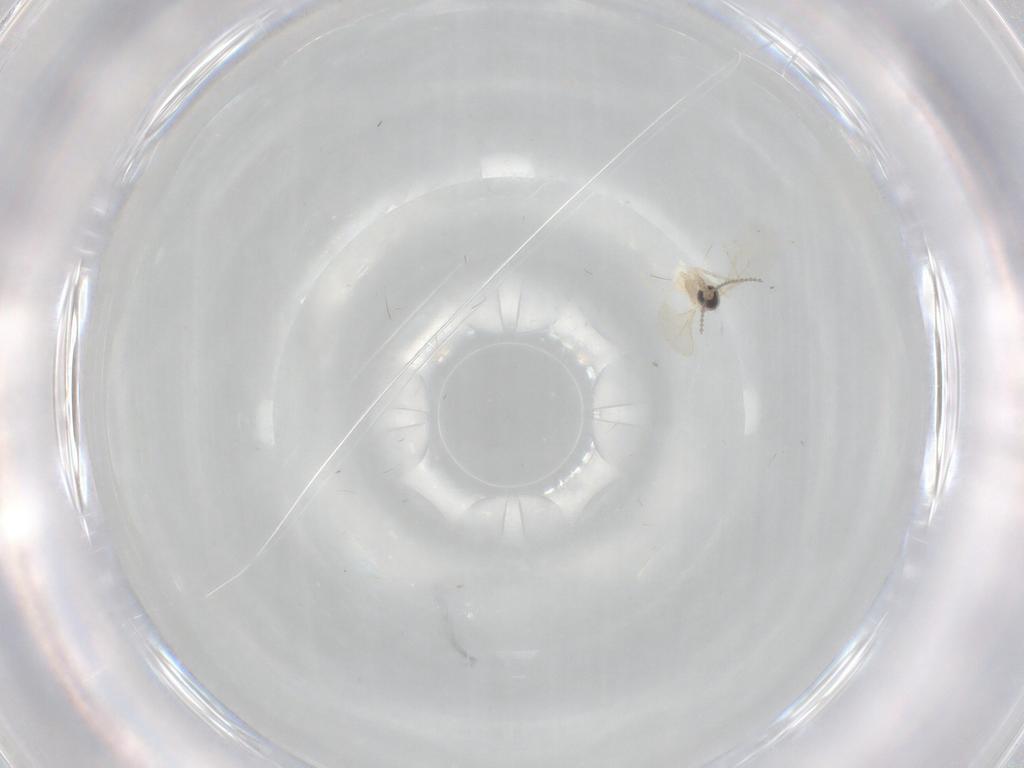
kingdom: Animalia
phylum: Arthropoda
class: Insecta
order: Diptera
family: Cecidomyiidae
